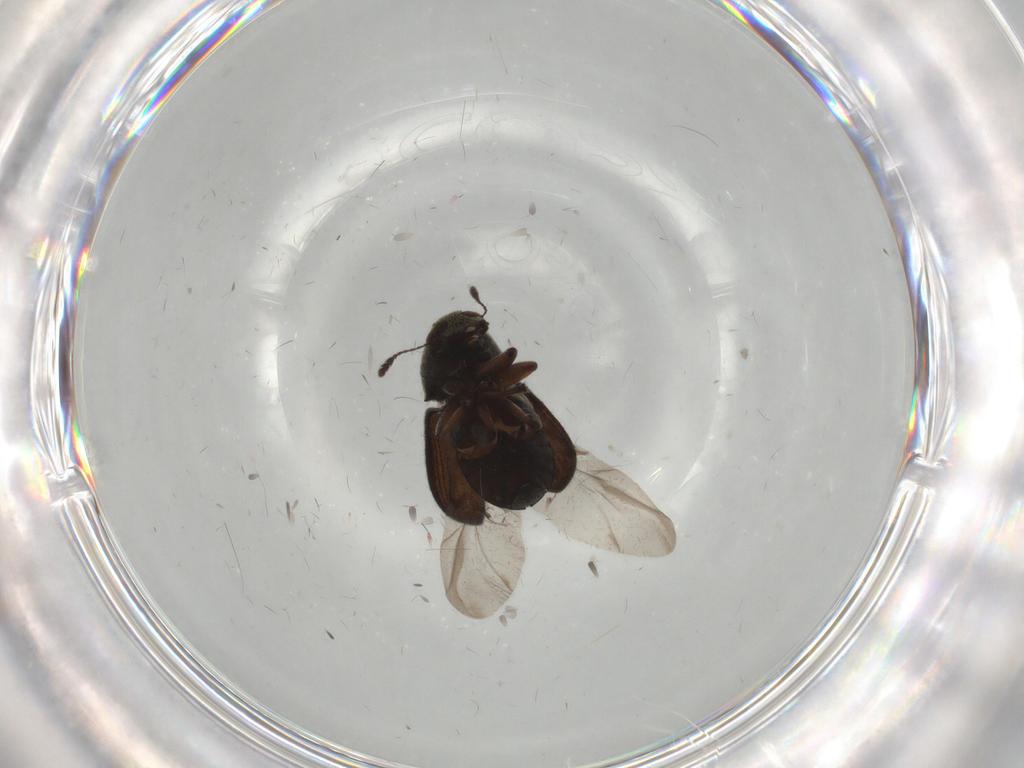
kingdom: Animalia
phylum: Arthropoda
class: Insecta
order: Coleoptera
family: Anthribidae
